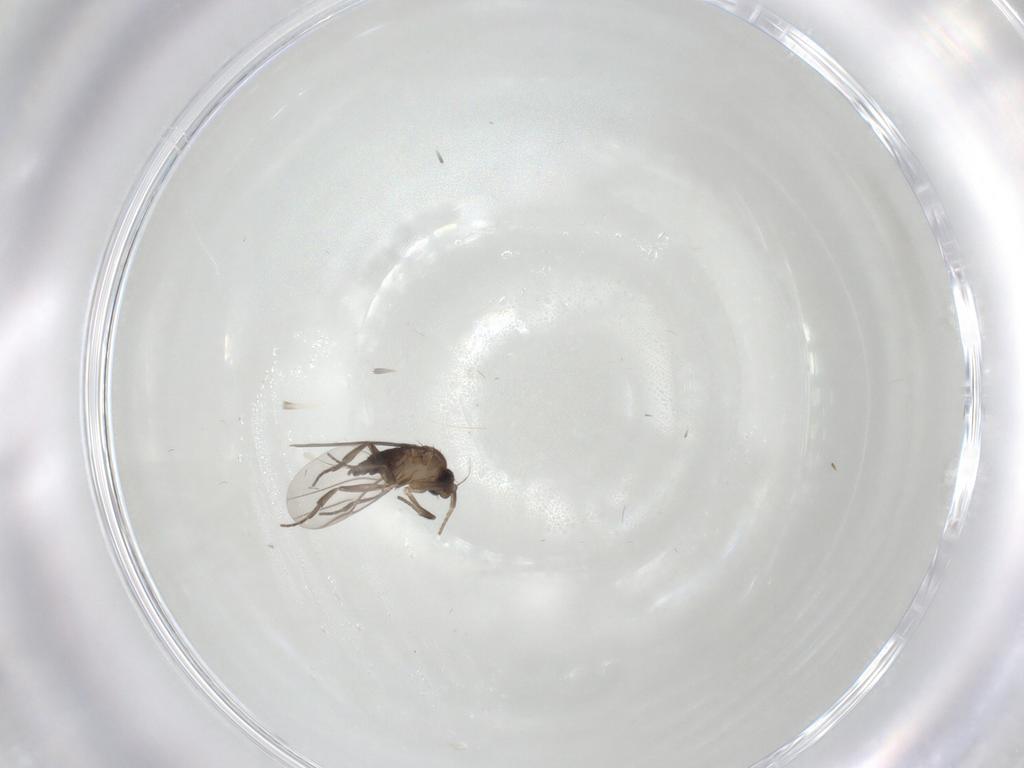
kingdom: Animalia
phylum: Arthropoda
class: Insecta
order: Diptera
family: Phoridae
